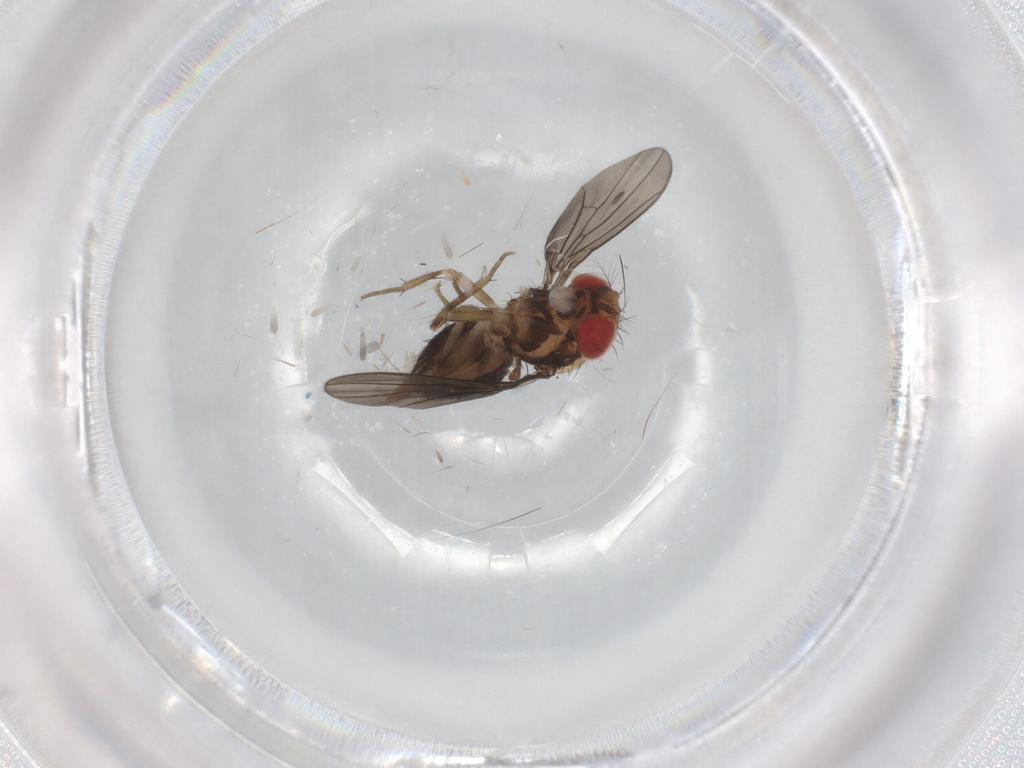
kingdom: Animalia
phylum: Arthropoda
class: Insecta
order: Diptera
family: Drosophilidae
